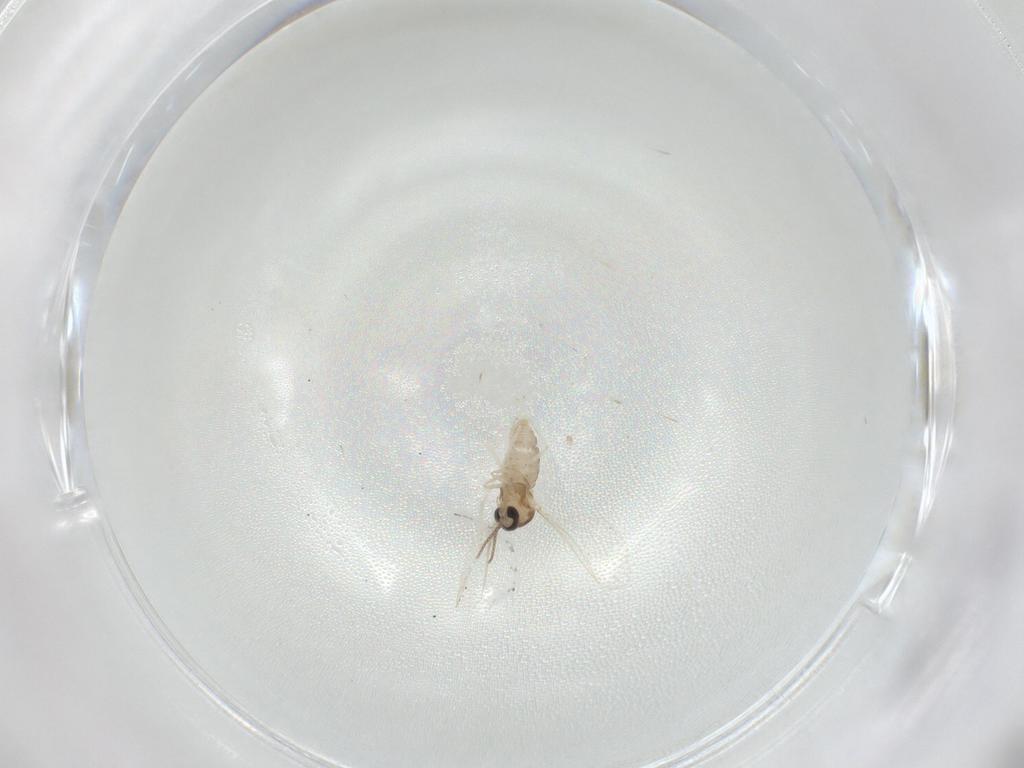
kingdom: Animalia
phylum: Arthropoda
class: Insecta
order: Diptera
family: Cecidomyiidae
